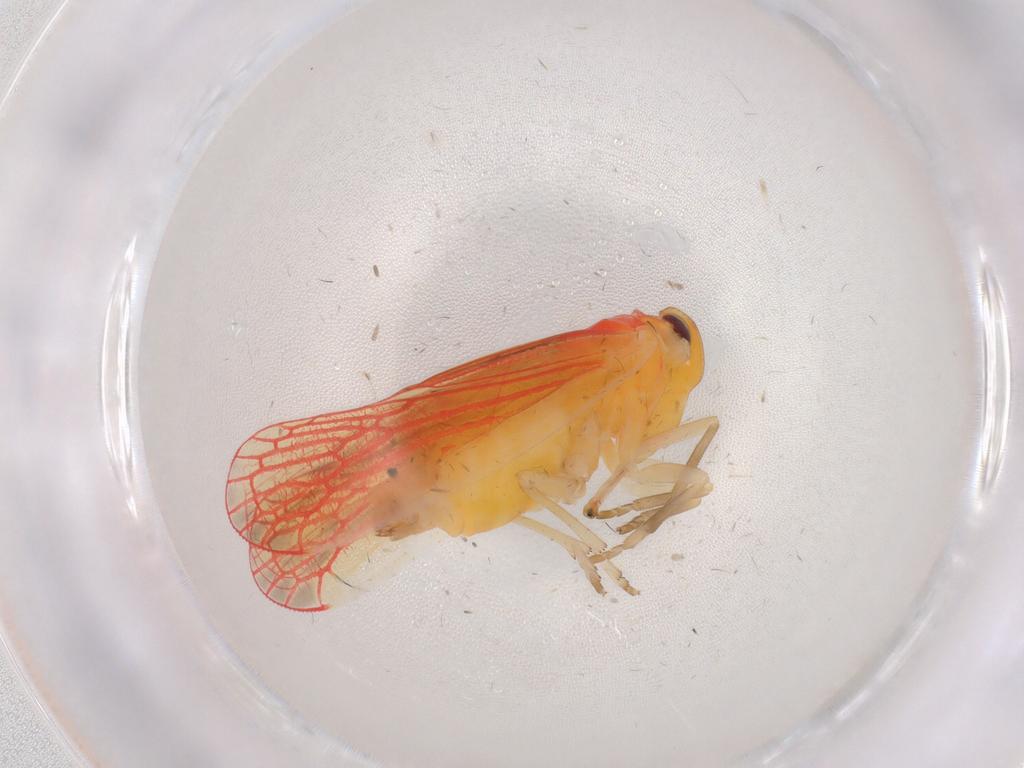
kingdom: Animalia
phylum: Arthropoda
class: Insecta
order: Hemiptera
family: Derbidae
